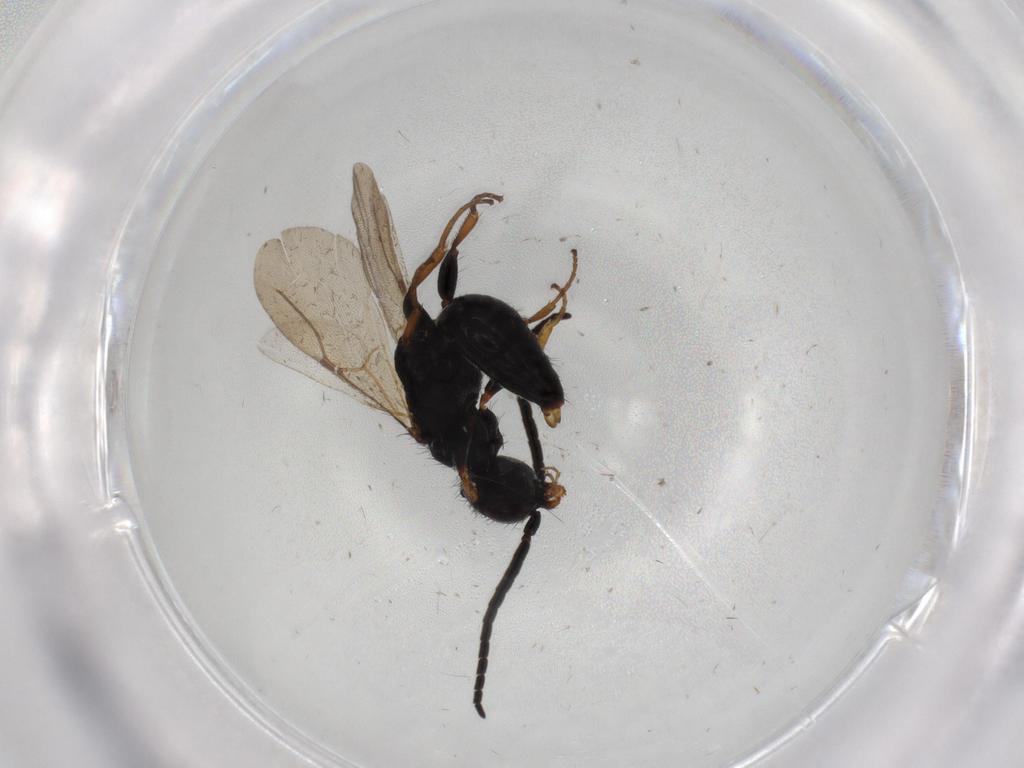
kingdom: Animalia
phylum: Arthropoda
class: Insecta
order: Hymenoptera
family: Bethylidae
